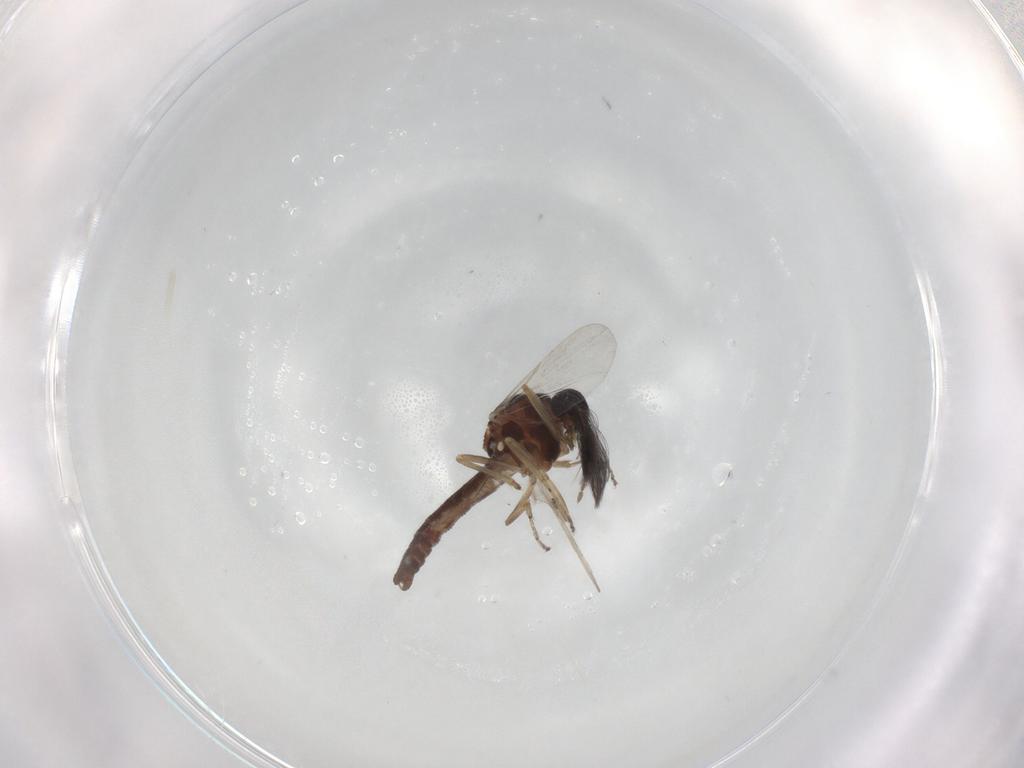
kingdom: Animalia
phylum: Arthropoda
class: Insecta
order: Diptera
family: Ceratopogonidae
